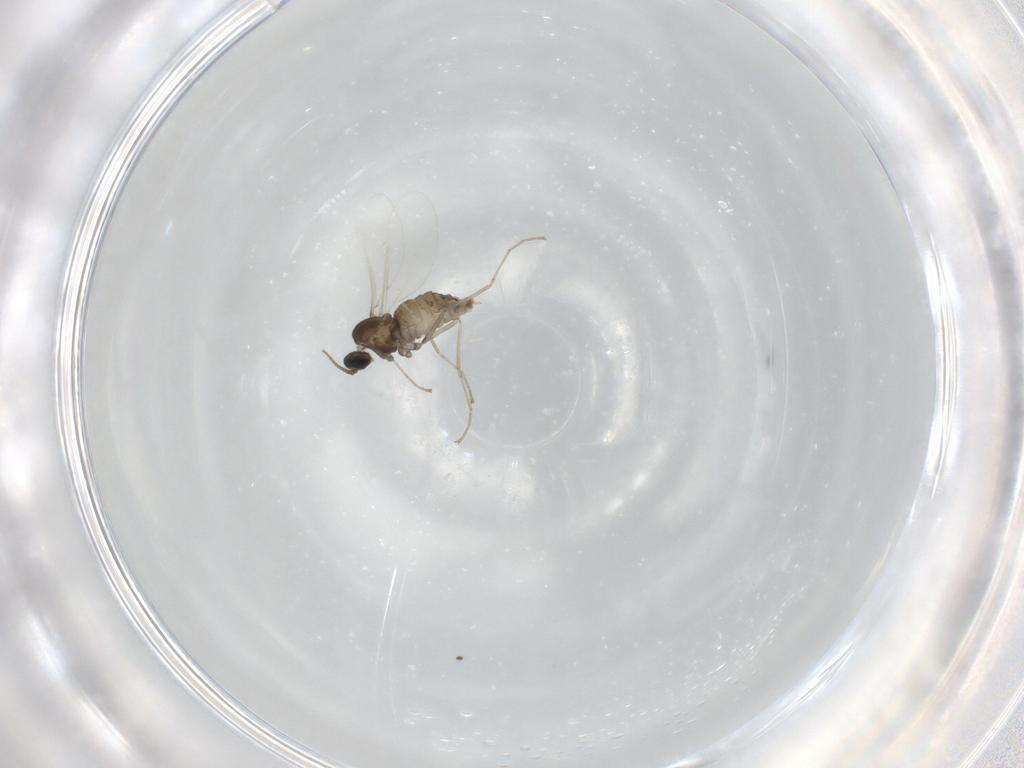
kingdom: Animalia
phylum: Arthropoda
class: Insecta
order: Diptera
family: Cecidomyiidae
